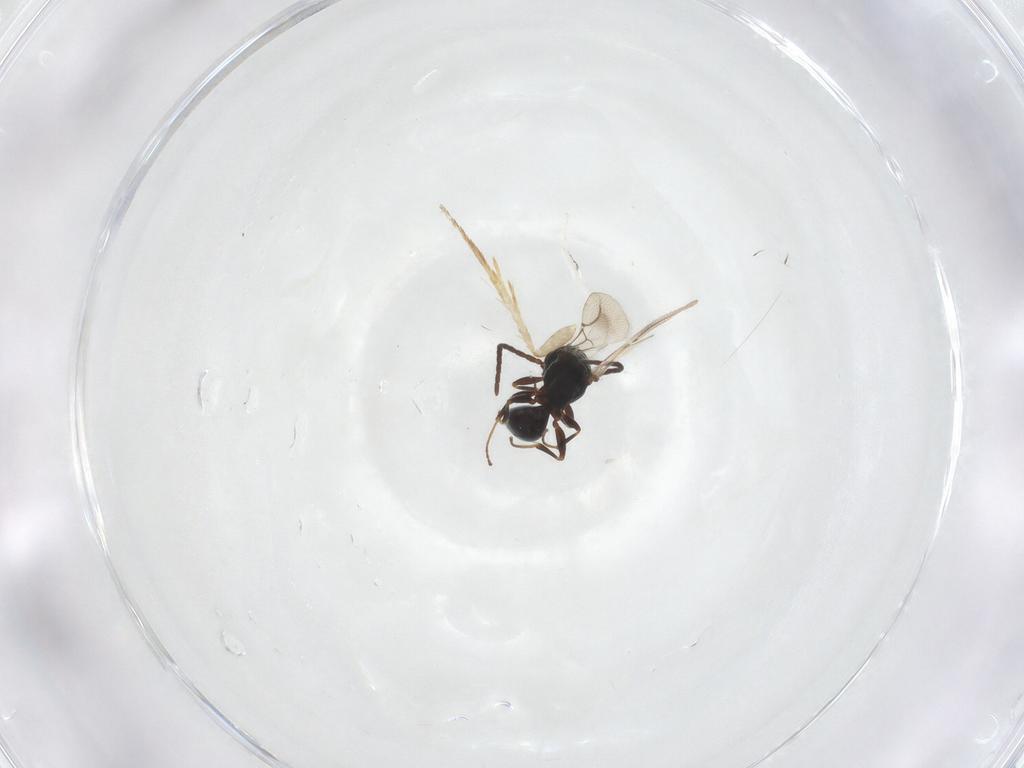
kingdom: Animalia
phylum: Arthropoda
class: Insecta
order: Hymenoptera
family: Bethylidae
